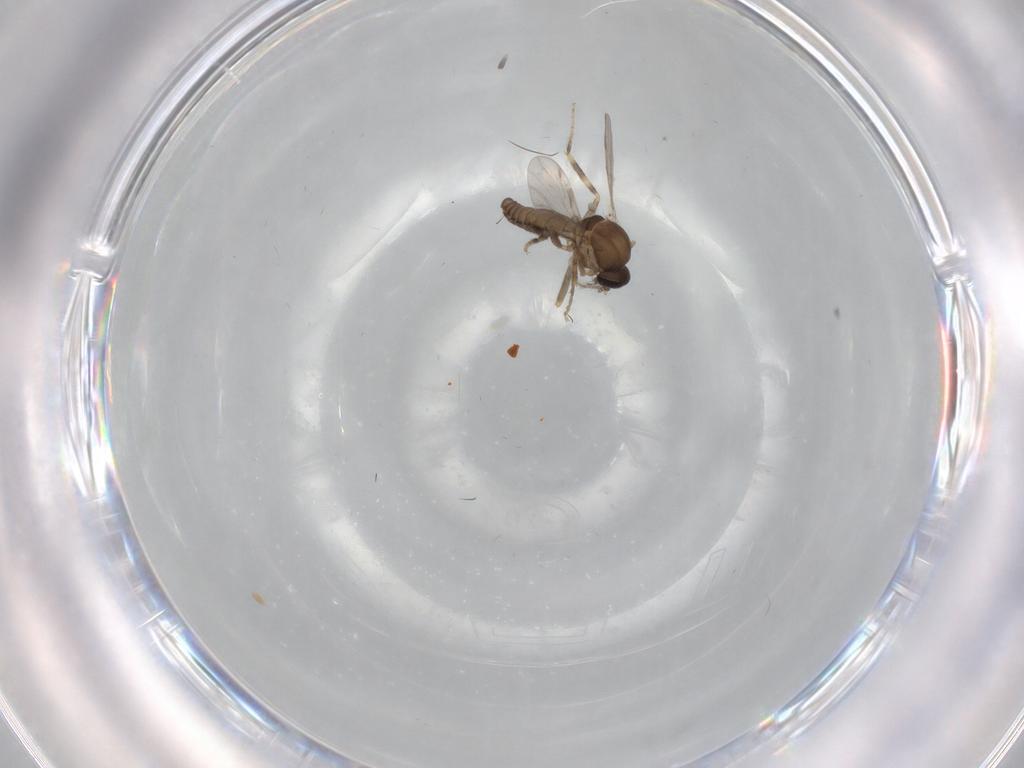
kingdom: Animalia
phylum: Arthropoda
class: Insecta
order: Diptera
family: Ceratopogonidae
